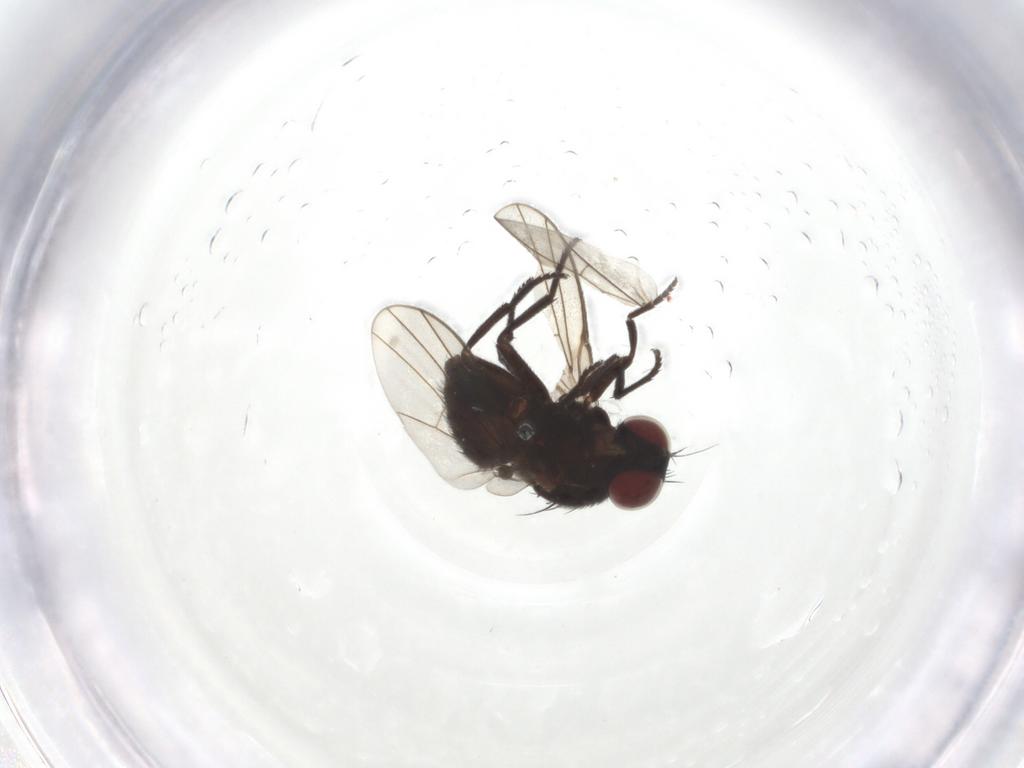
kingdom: Animalia
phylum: Arthropoda
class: Insecta
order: Diptera
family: Agromyzidae
